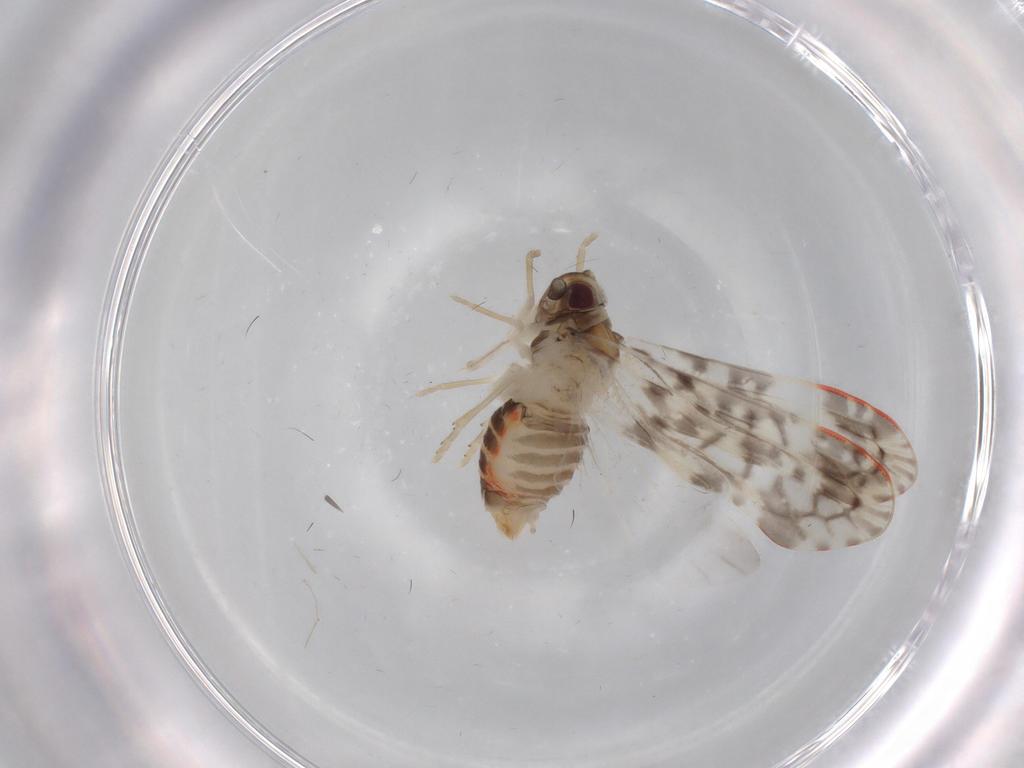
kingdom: Animalia
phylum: Arthropoda
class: Insecta
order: Hemiptera
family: Derbidae
